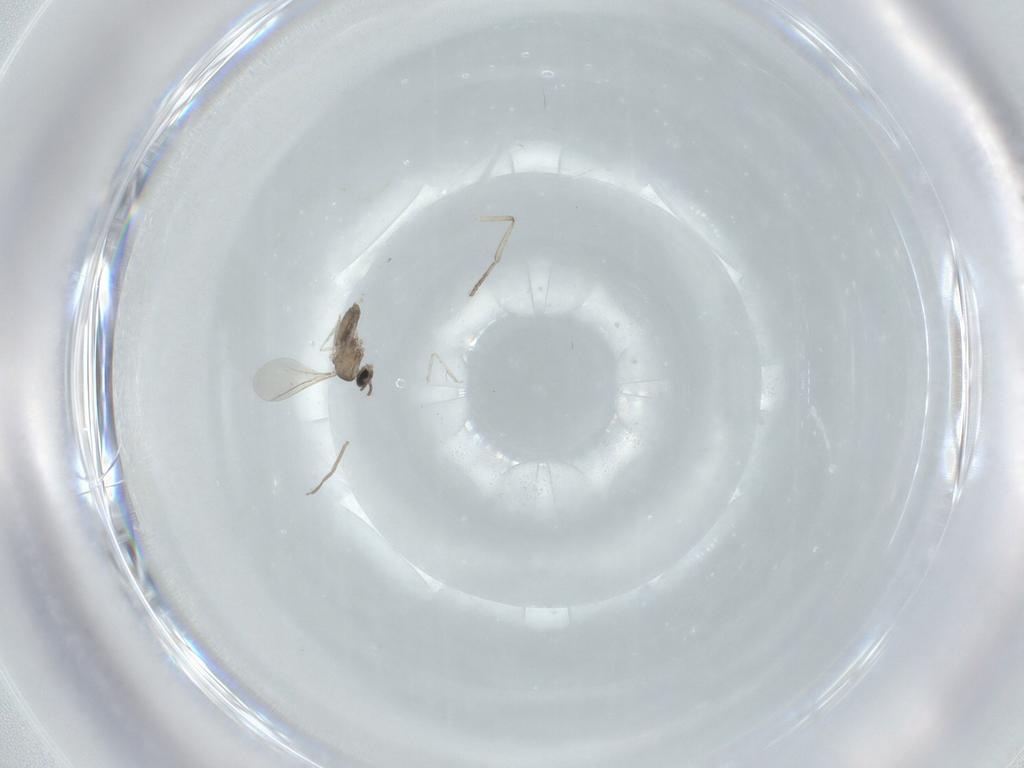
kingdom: Animalia
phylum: Arthropoda
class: Insecta
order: Diptera
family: Cecidomyiidae
